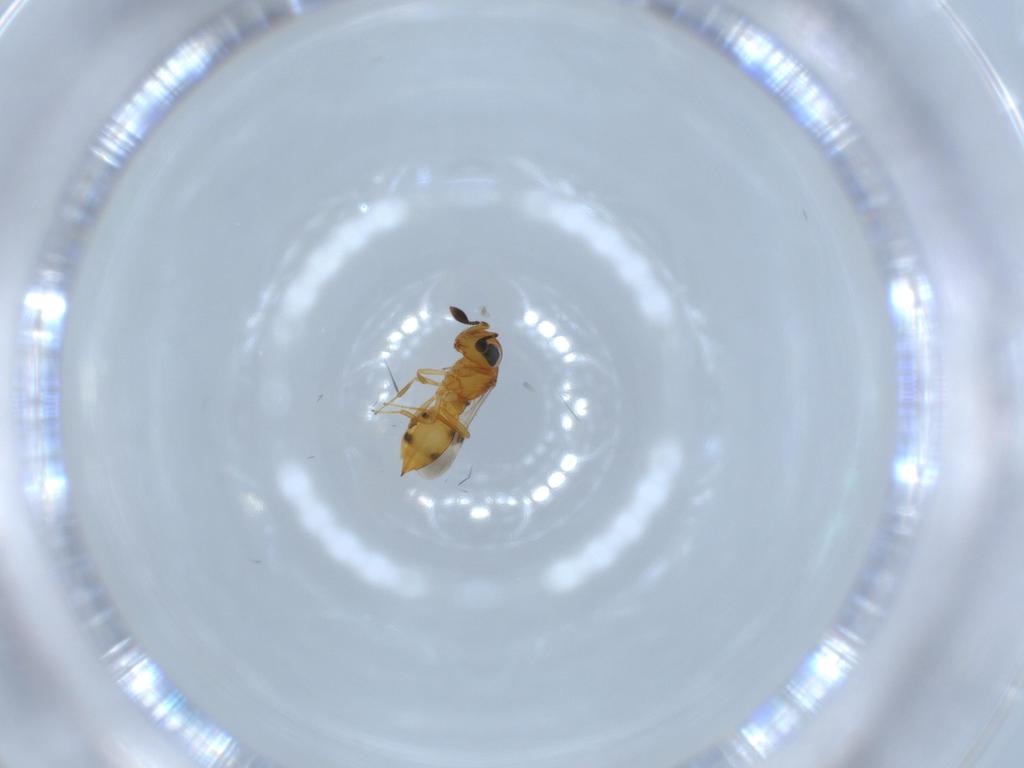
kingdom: Animalia
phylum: Arthropoda
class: Insecta
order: Hymenoptera
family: Scelionidae
